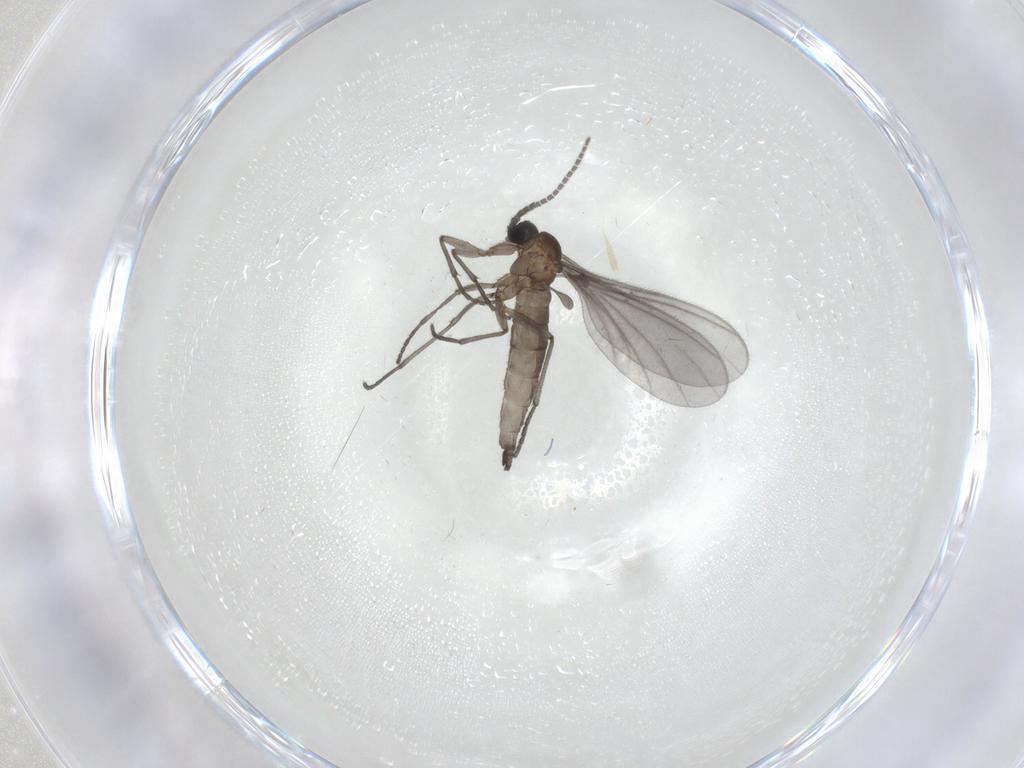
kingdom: Animalia
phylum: Arthropoda
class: Insecta
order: Diptera
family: Sciaridae
